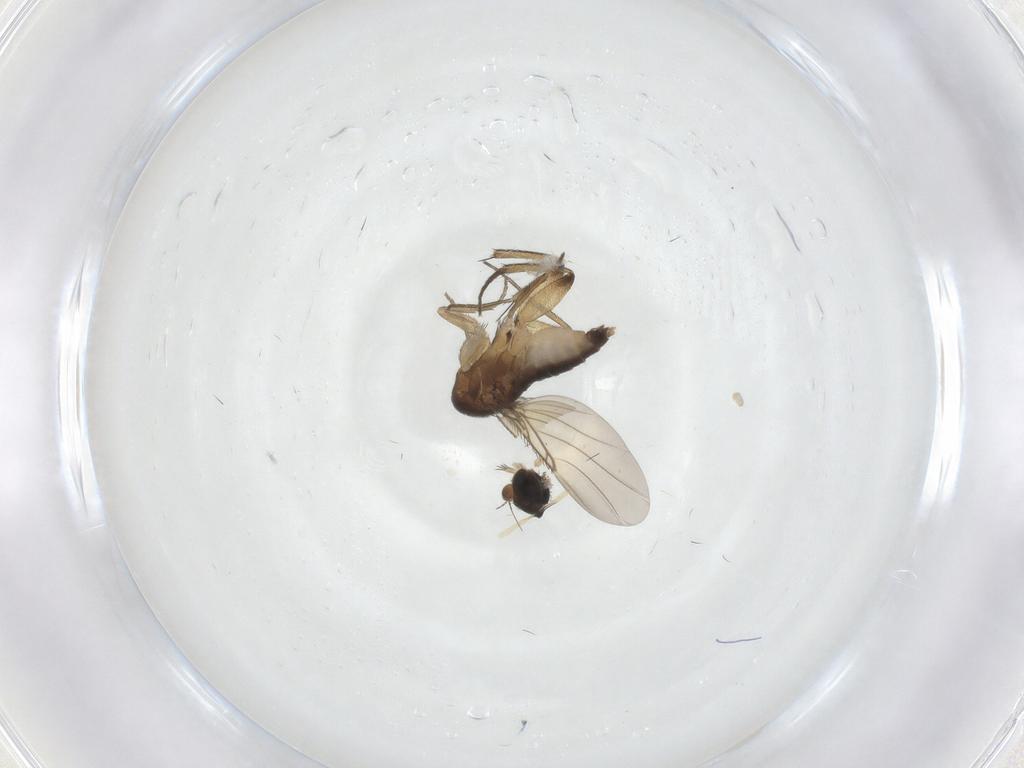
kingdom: Animalia
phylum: Arthropoda
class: Insecta
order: Diptera
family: Phoridae
